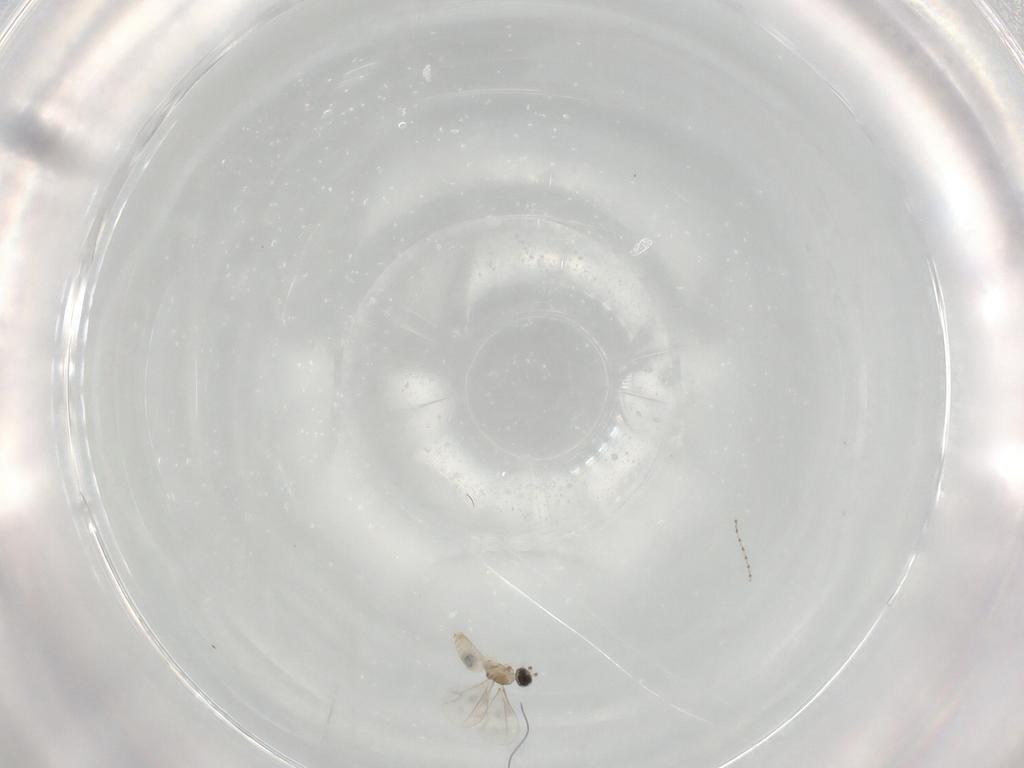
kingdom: Animalia
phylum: Arthropoda
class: Insecta
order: Diptera
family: Cecidomyiidae
